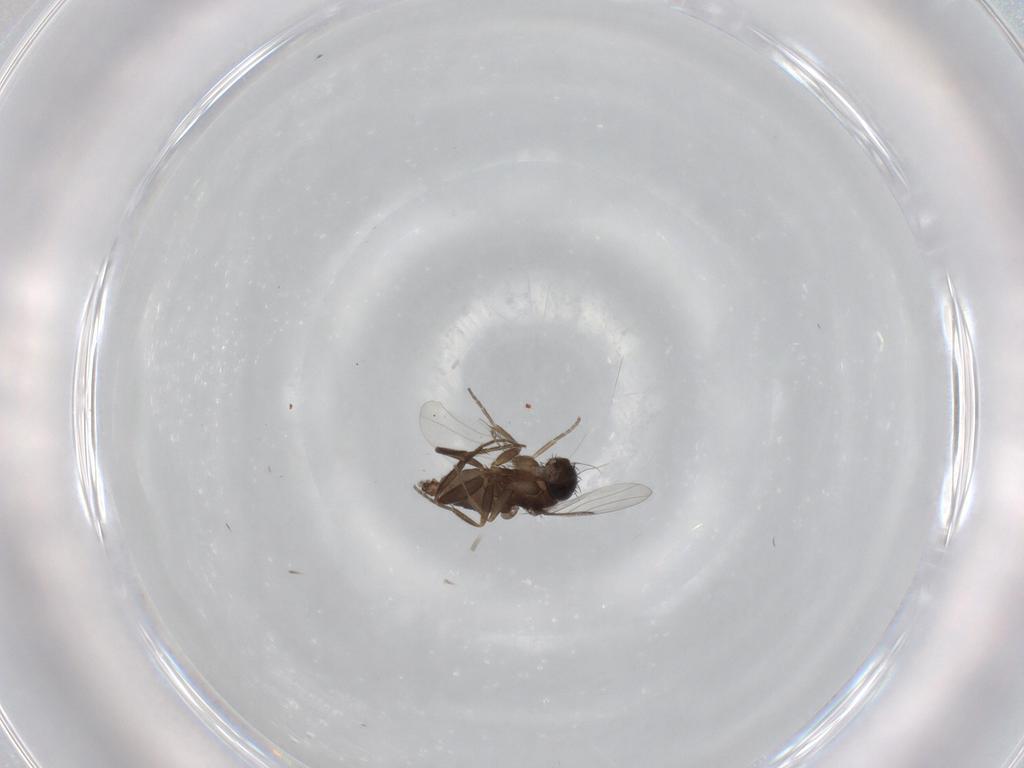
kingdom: Animalia
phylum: Arthropoda
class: Insecta
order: Diptera
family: Phoridae
